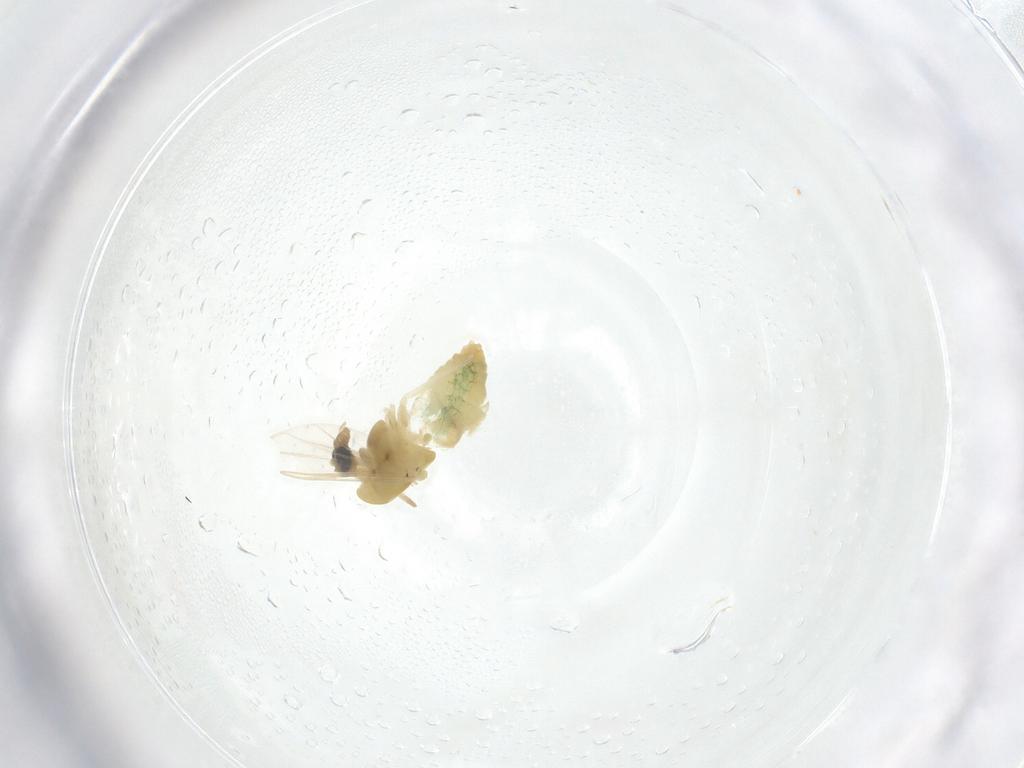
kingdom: Animalia
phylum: Arthropoda
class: Insecta
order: Diptera
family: Chironomidae
